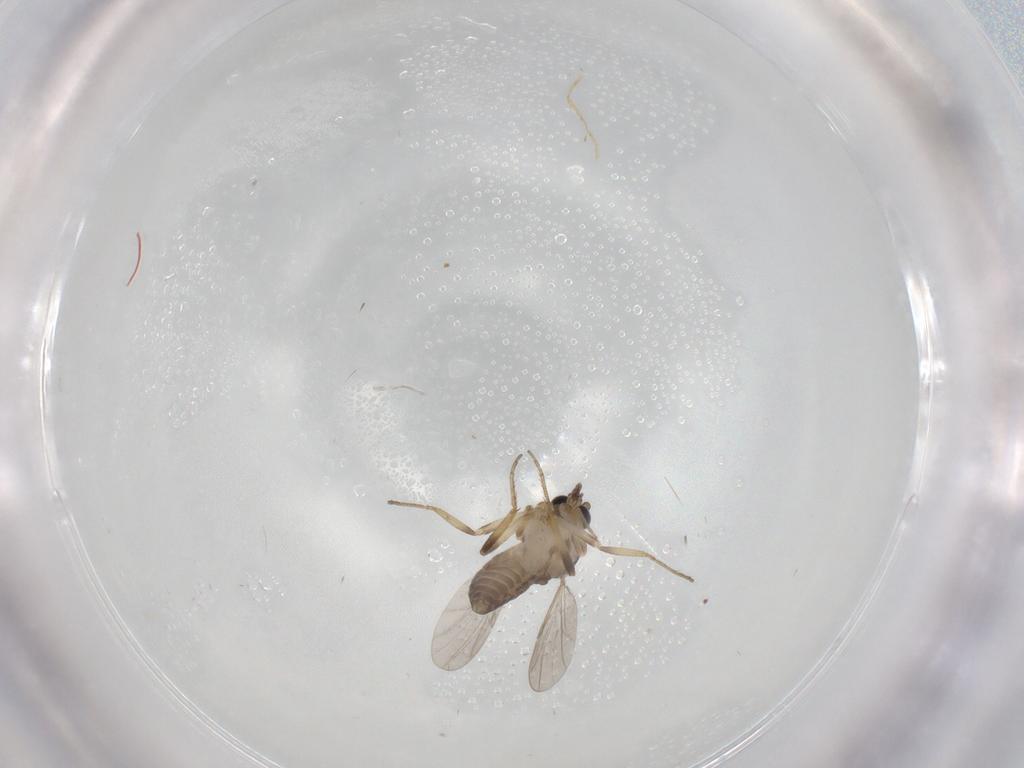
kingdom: Animalia
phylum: Arthropoda
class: Insecta
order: Diptera
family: Ceratopogonidae
